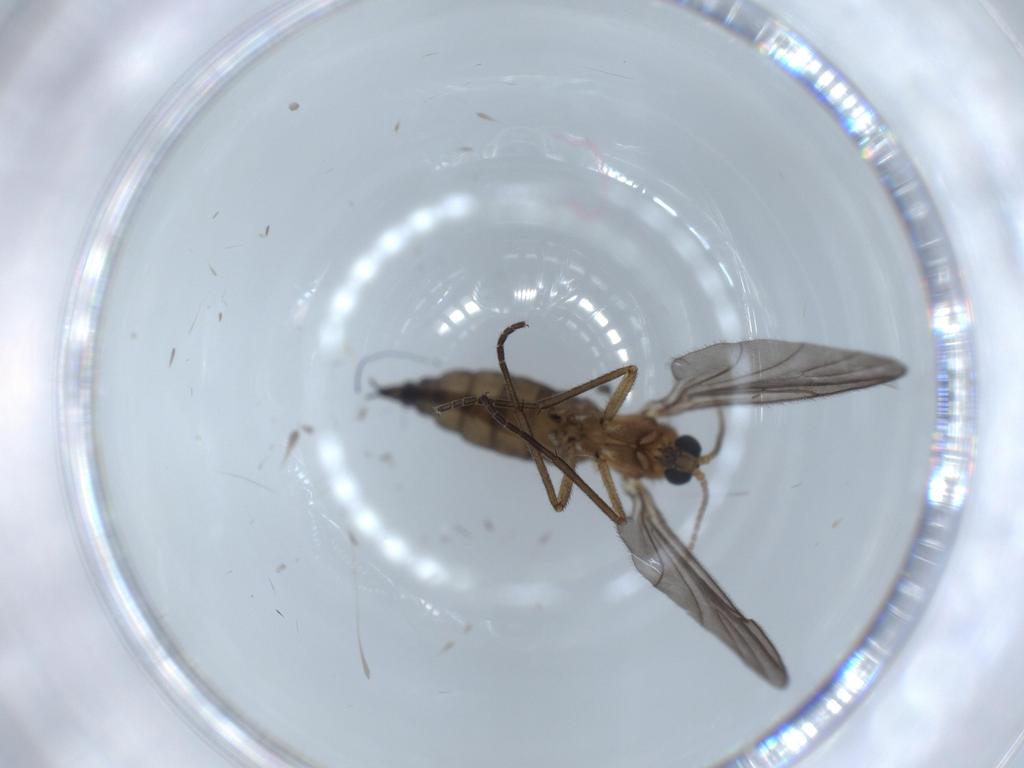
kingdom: Animalia
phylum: Arthropoda
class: Insecta
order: Diptera
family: Sciaridae
